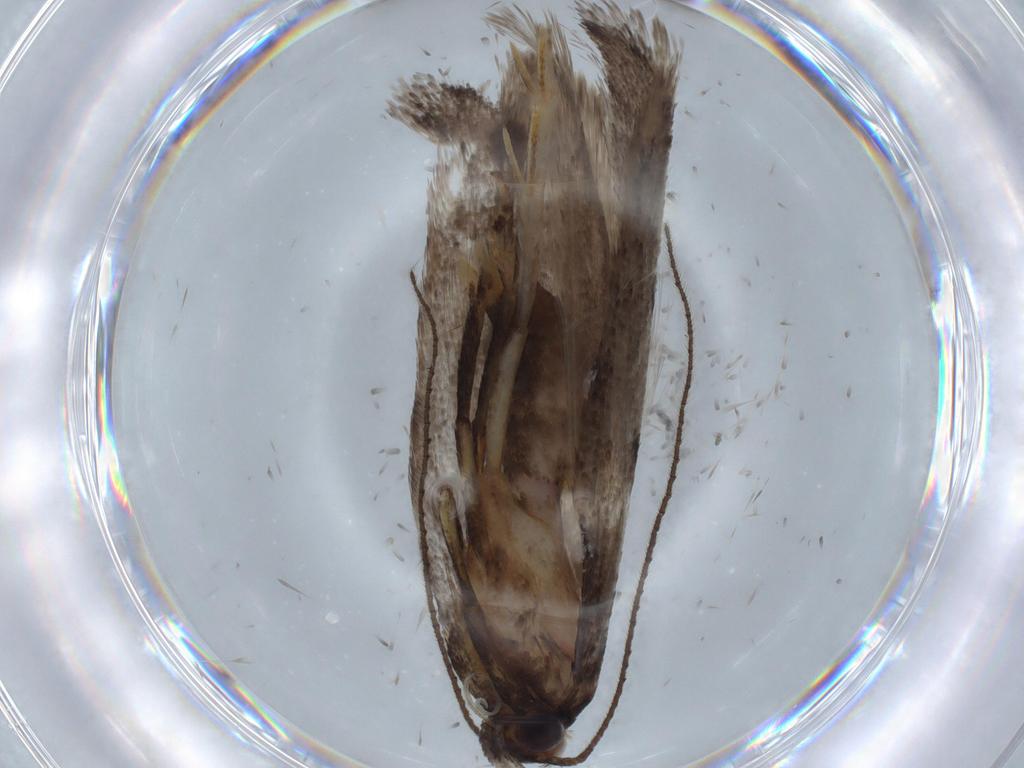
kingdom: Animalia
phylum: Arthropoda
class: Insecta
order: Lepidoptera
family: Oecophoridae
